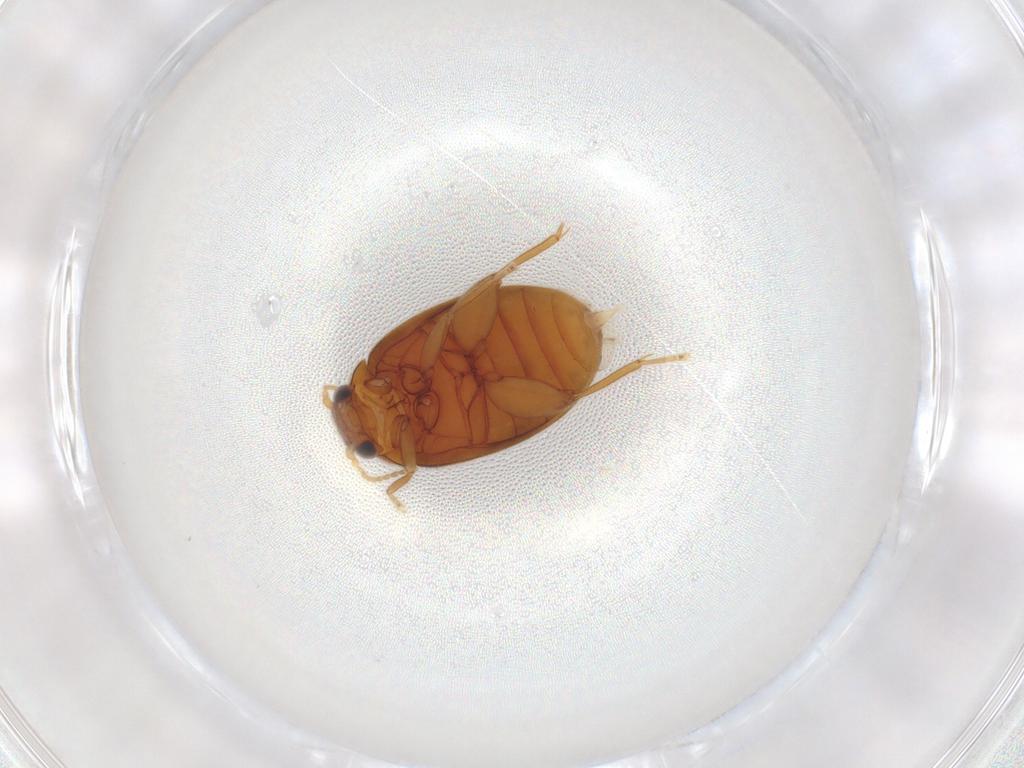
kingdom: Animalia
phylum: Arthropoda
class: Insecta
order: Coleoptera
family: Scirtidae
